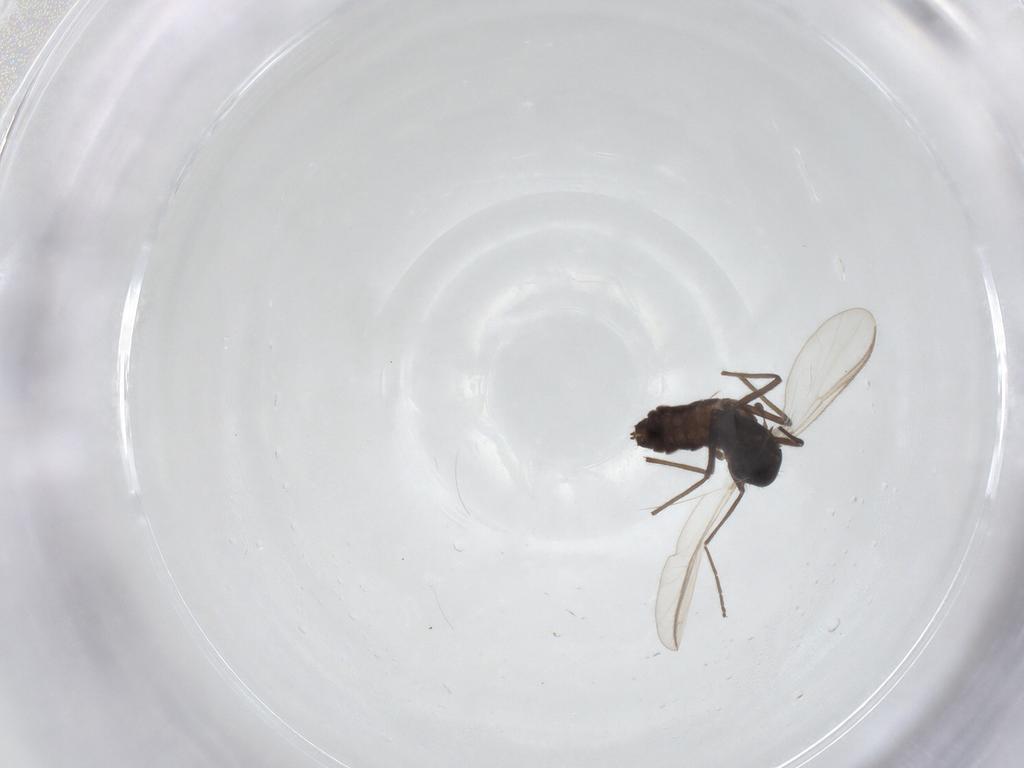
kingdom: Animalia
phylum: Arthropoda
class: Insecta
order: Diptera
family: Chironomidae
